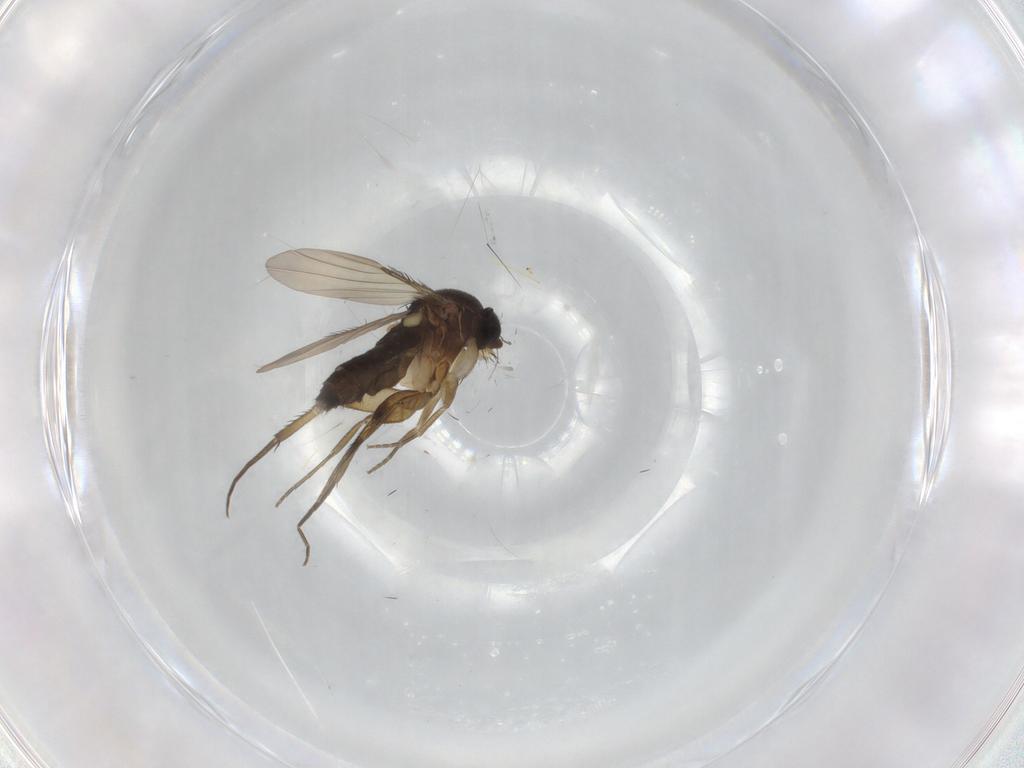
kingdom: Animalia
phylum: Arthropoda
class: Insecta
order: Diptera
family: Phoridae
